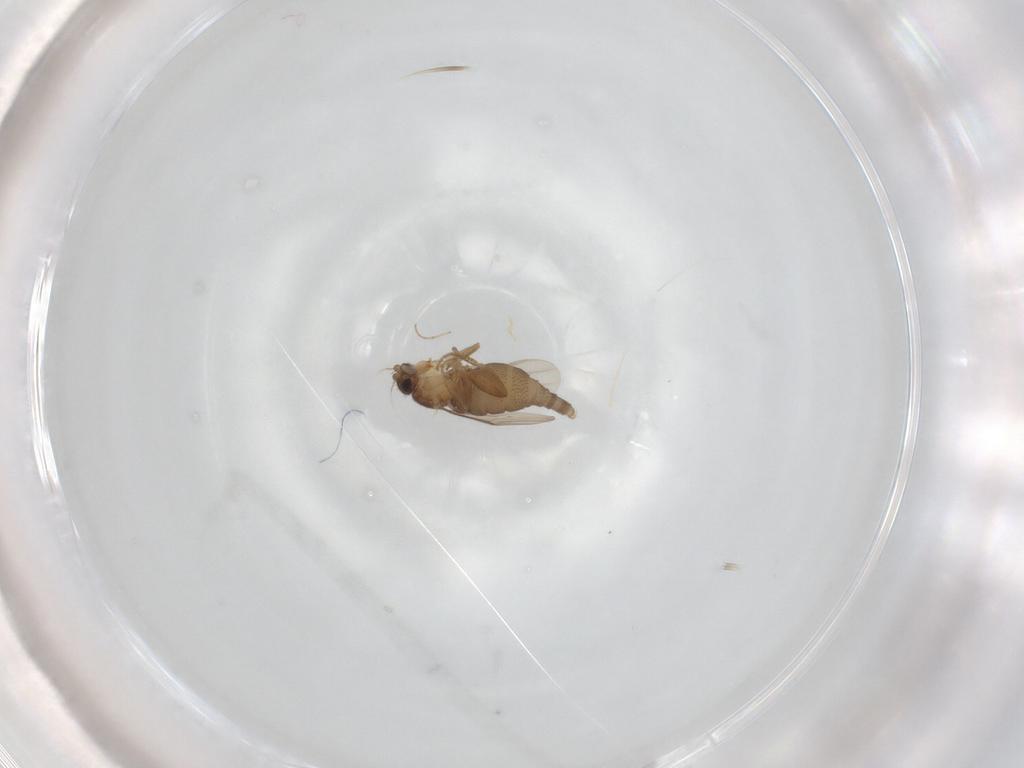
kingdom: Animalia
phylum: Arthropoda
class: Insecta
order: Diptera
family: Phoridae
